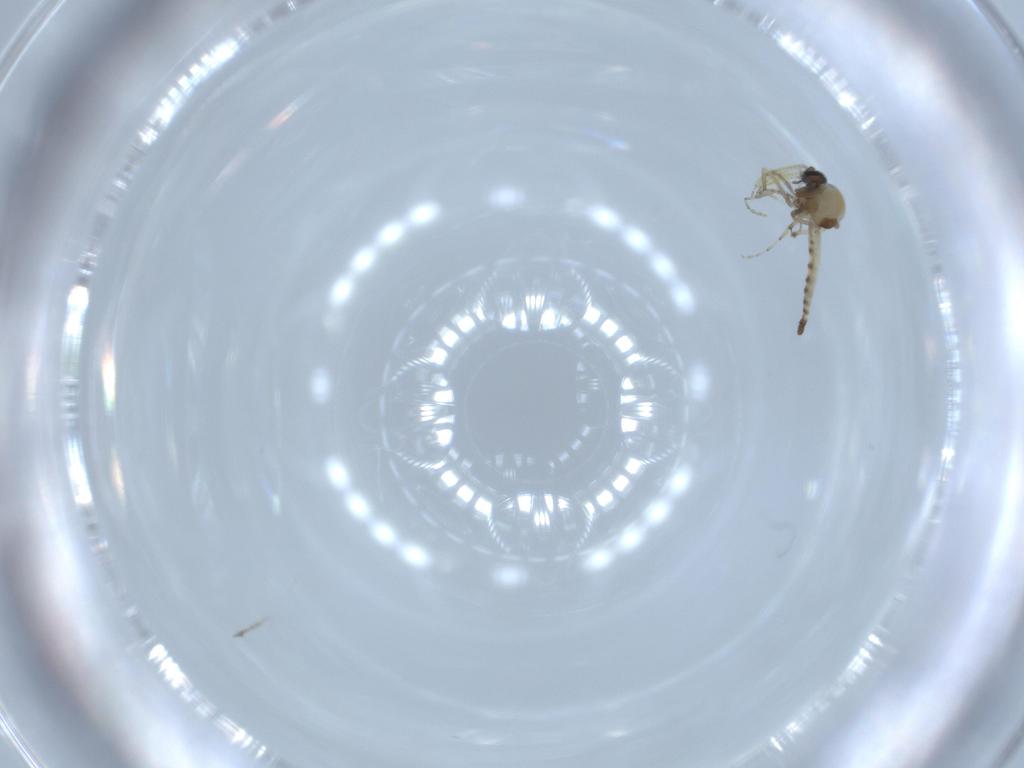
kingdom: Animalia
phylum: Arthropoda
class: Insecta
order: Diptera
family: Ceratopogonidae
